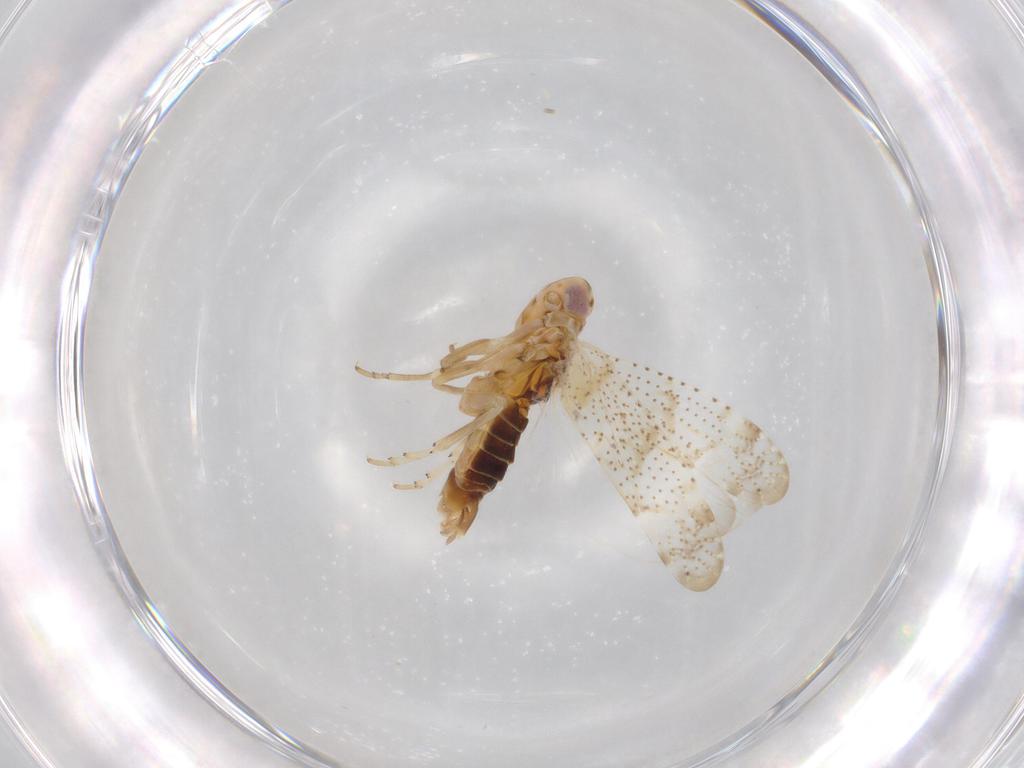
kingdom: Animalia
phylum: Arthropoda
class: Insecta
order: Hemiptera
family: Cixiidae
